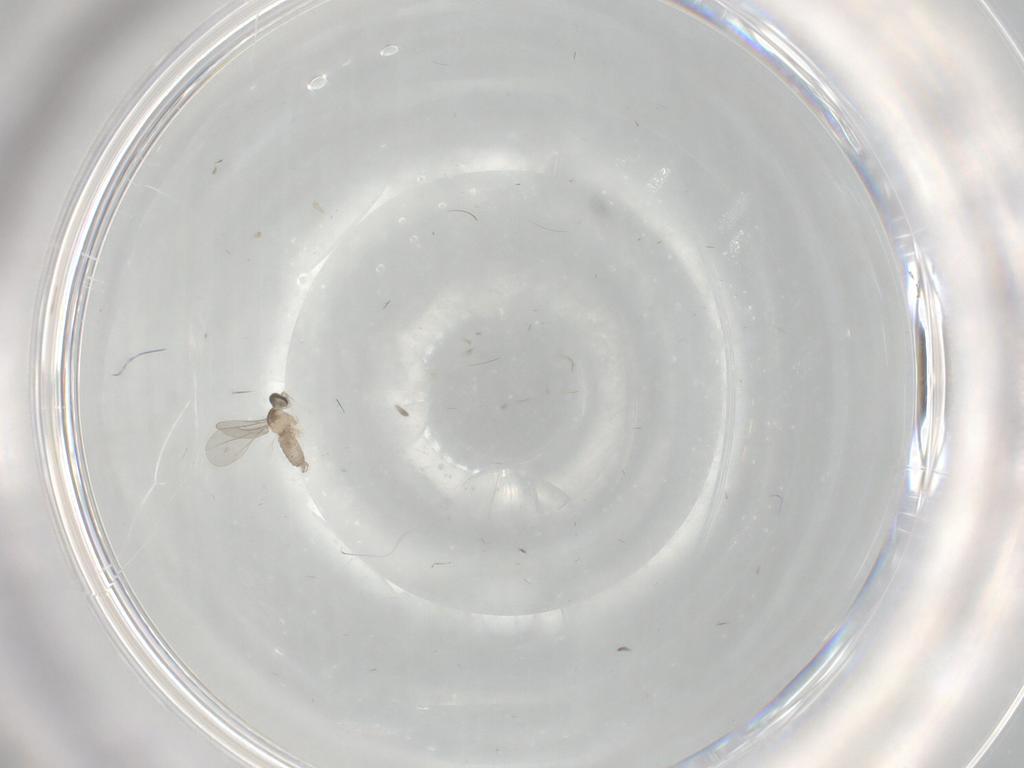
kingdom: Animalia
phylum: Arthropoda
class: Insecta
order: Diptera
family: Cecidomyiidae
